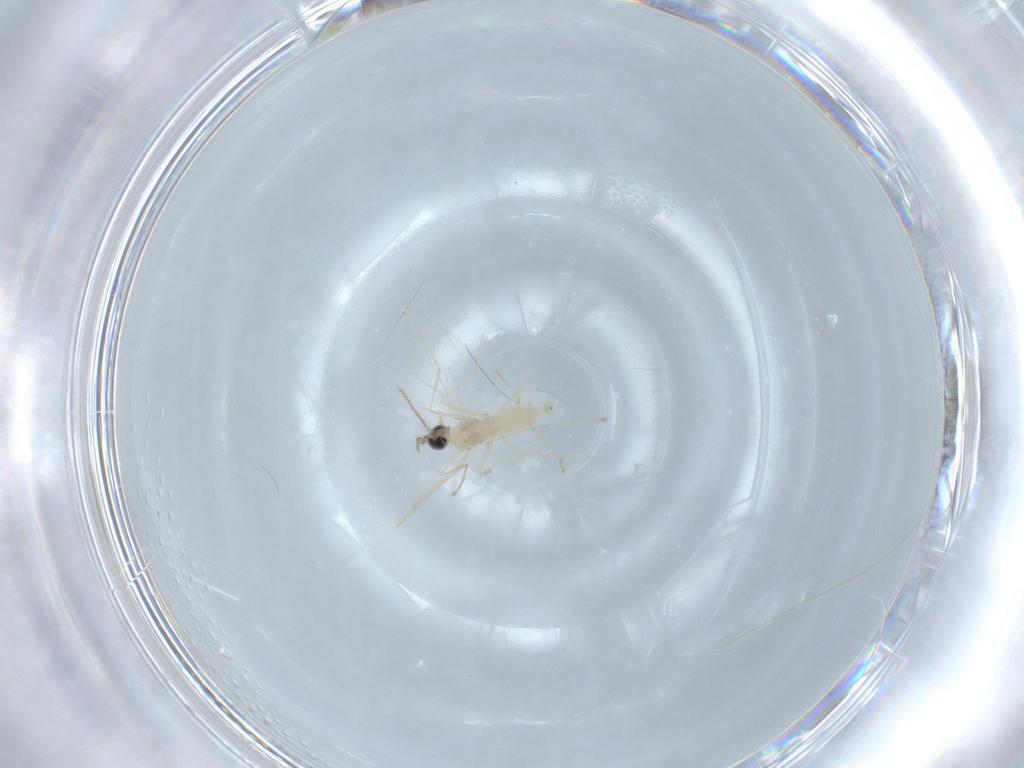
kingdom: Animalia
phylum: Arthropoda
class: Insecta
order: Diptera
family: Cecidomyiidae
